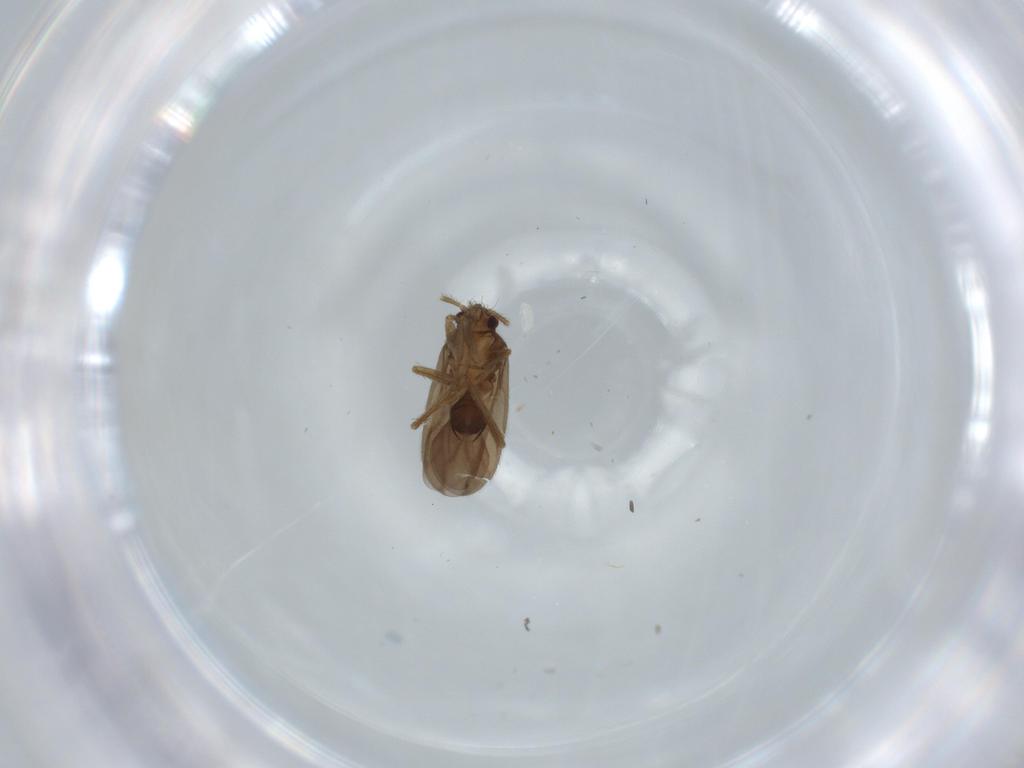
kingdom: Animalia
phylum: Arthropoda
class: Insecta
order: Hemiptera
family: Ceratocombidae
